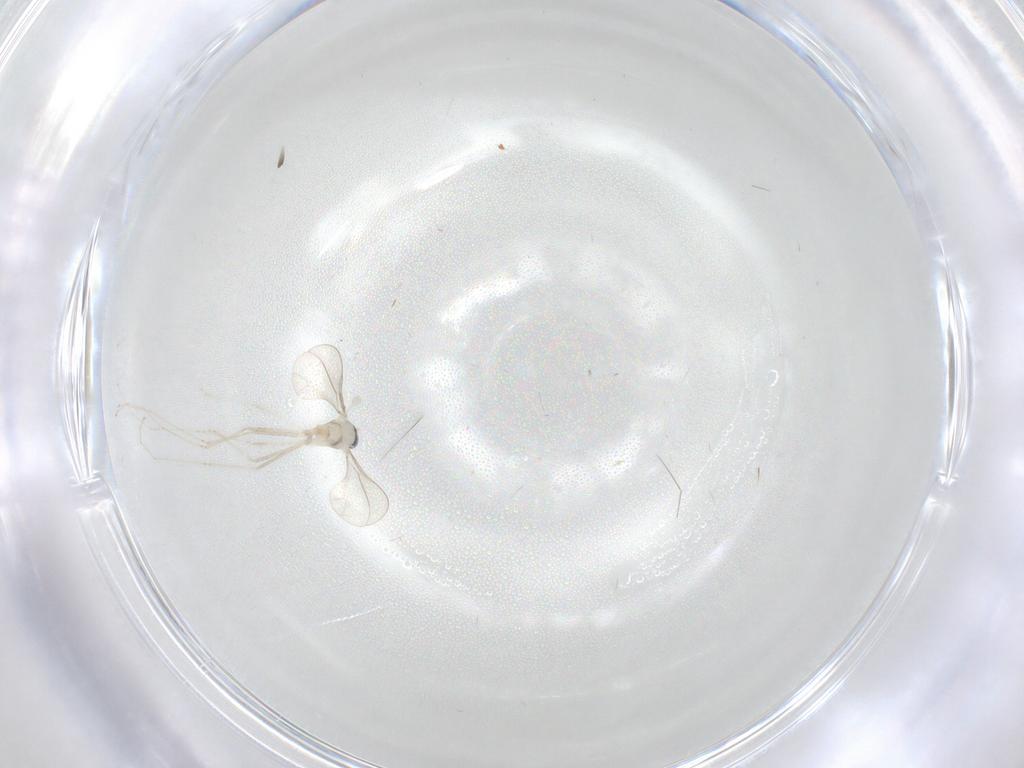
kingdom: Animalia
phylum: Arthropoda
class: Insecta
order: Diptera
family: Cecidomyiidae
